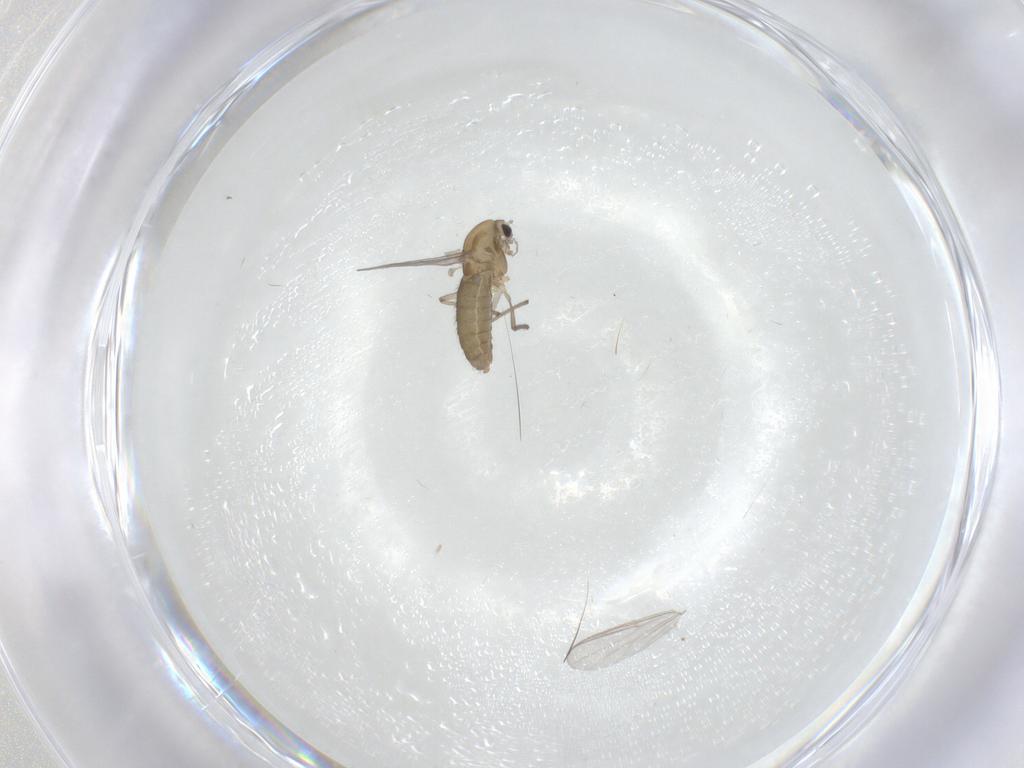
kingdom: Animalia
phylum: Arthropoda
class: Insecta
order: Diptera
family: Chironomidae
